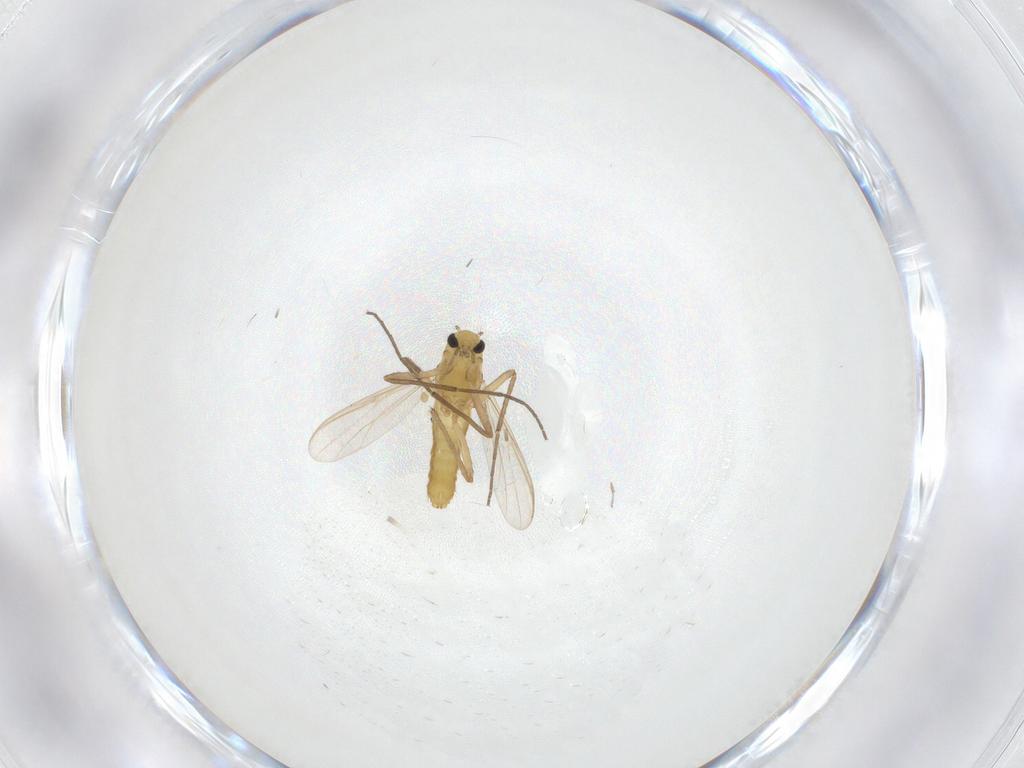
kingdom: Animalia
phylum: Arthropoda
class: Insecta
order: Diptera
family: Chironomidae
